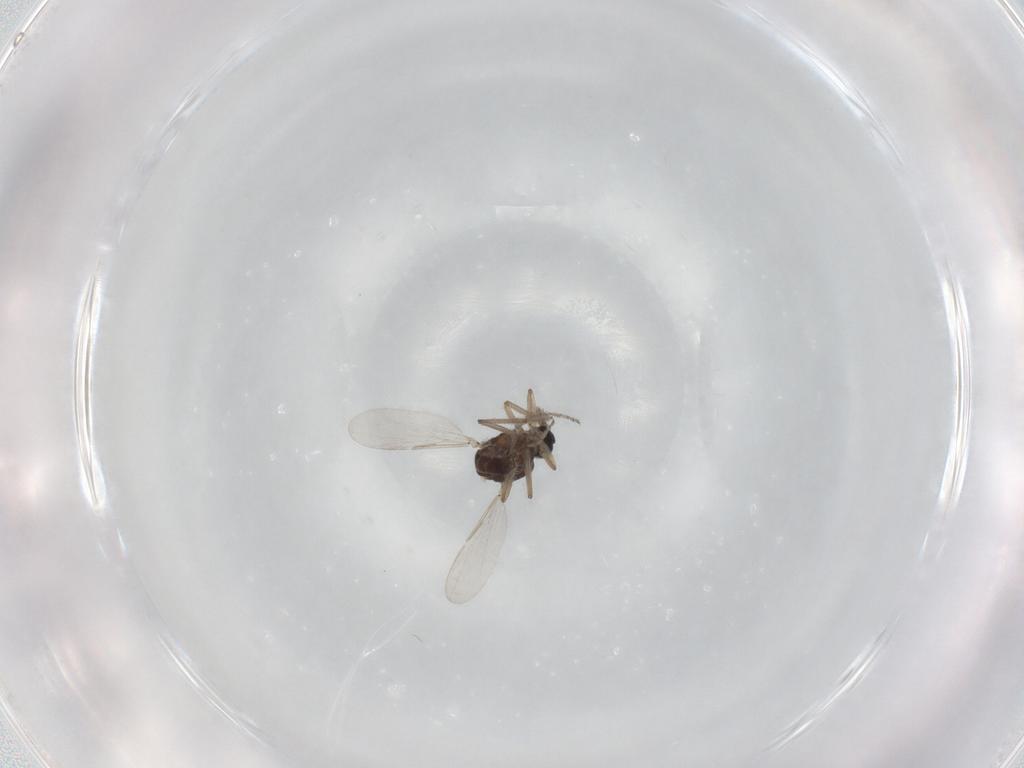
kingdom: Animalia
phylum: Arthropoda
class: Insecta
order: Diptera
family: Ceratopogonidae
